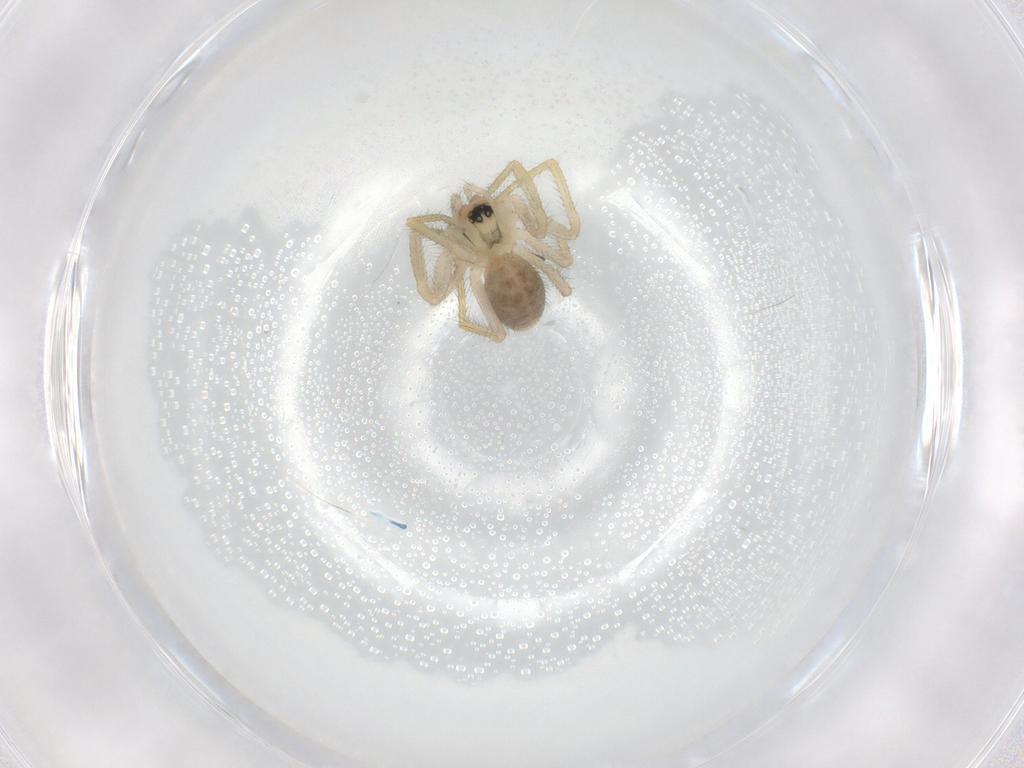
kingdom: Animalia
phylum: Arthropoda
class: Arachnida
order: Araneae
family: Linyphiidae
